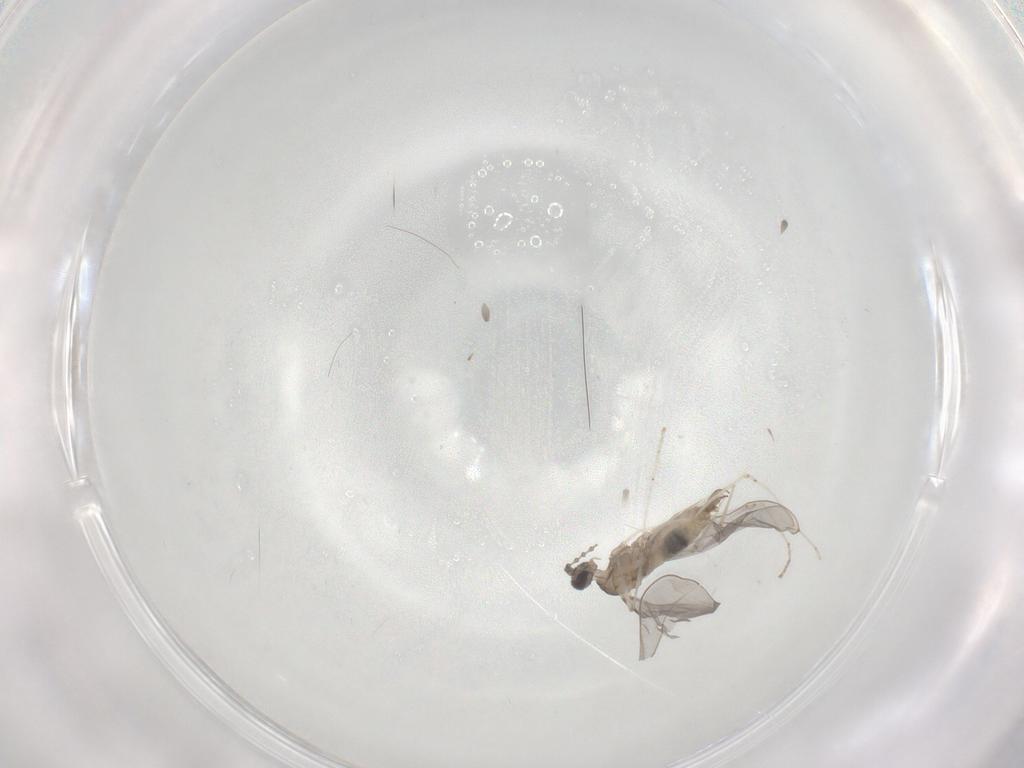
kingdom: Animalia
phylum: Arthropoda
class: Insecta
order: Diptera
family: Cecidomyiidae
